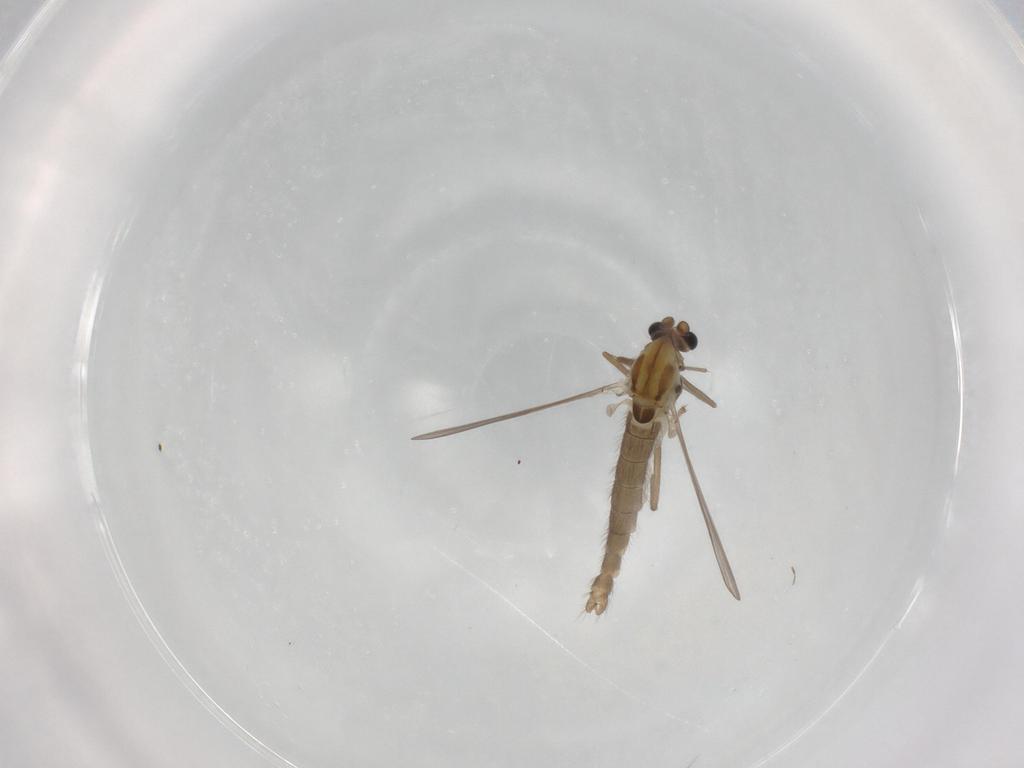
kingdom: Animalia
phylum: Arthropoda
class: Insecta
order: Diptera
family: Chironomidae
